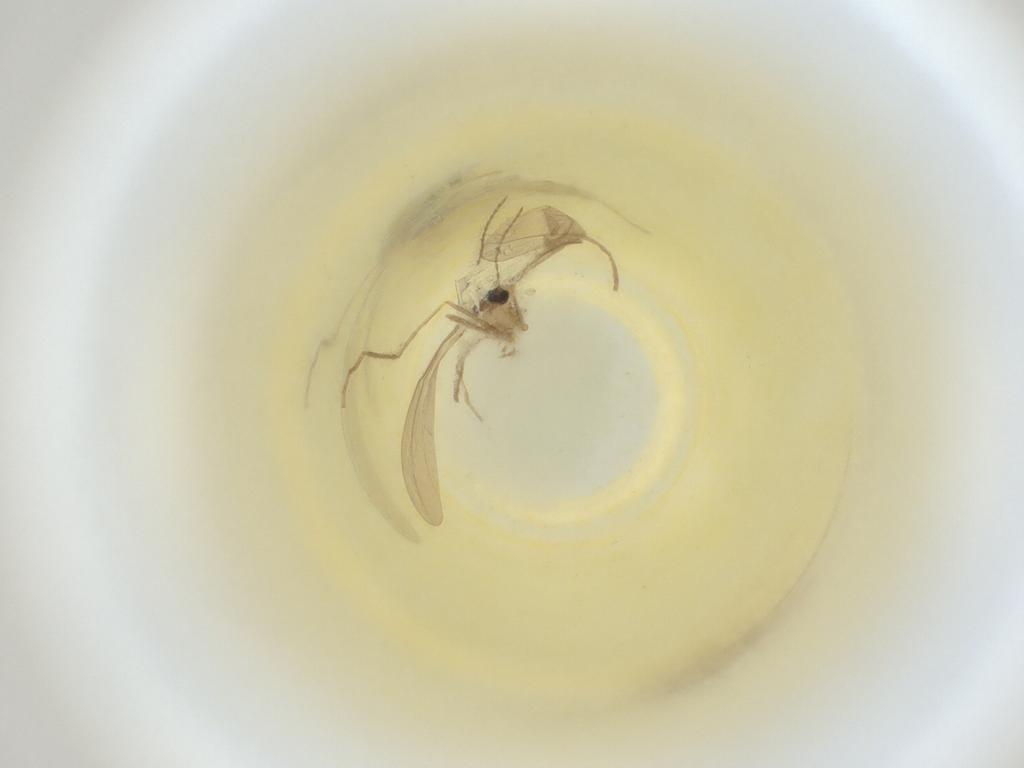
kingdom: Animalia
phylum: Arthropoda
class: Insecta
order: Diptera
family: Cecidomyiidae
